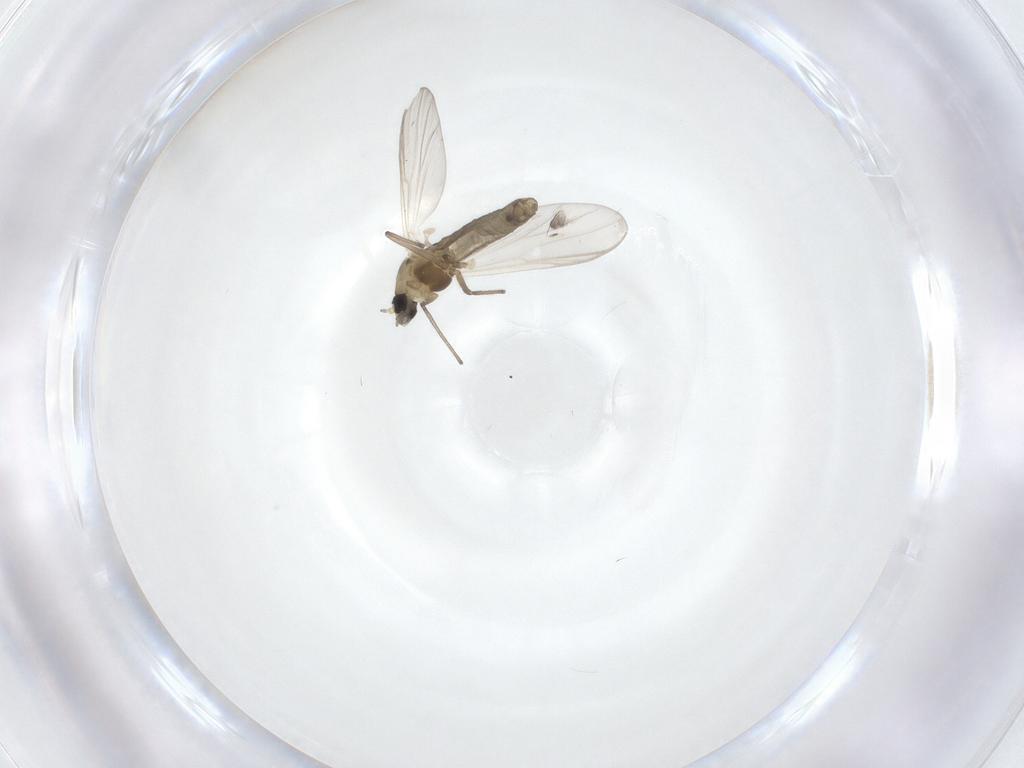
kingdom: Animalia
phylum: Arthropoda
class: Insecta
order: Diptera
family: Chironomidae
